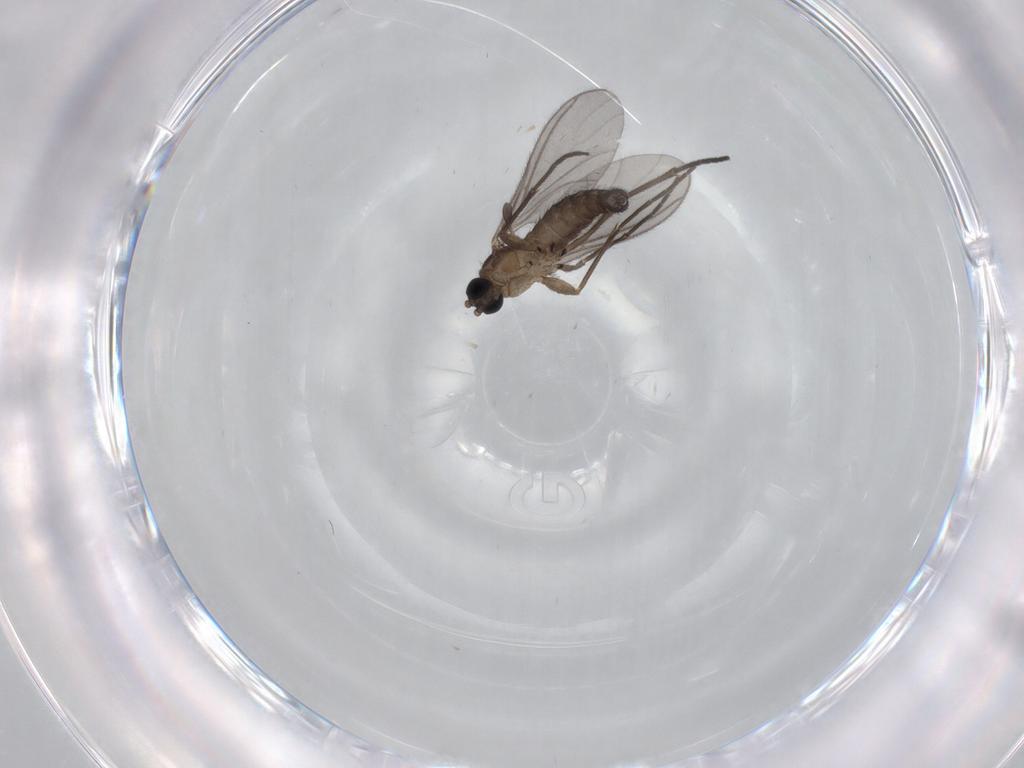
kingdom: Animalia
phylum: Arthropoda
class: Insecta
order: Diptera
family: Sciaridae
